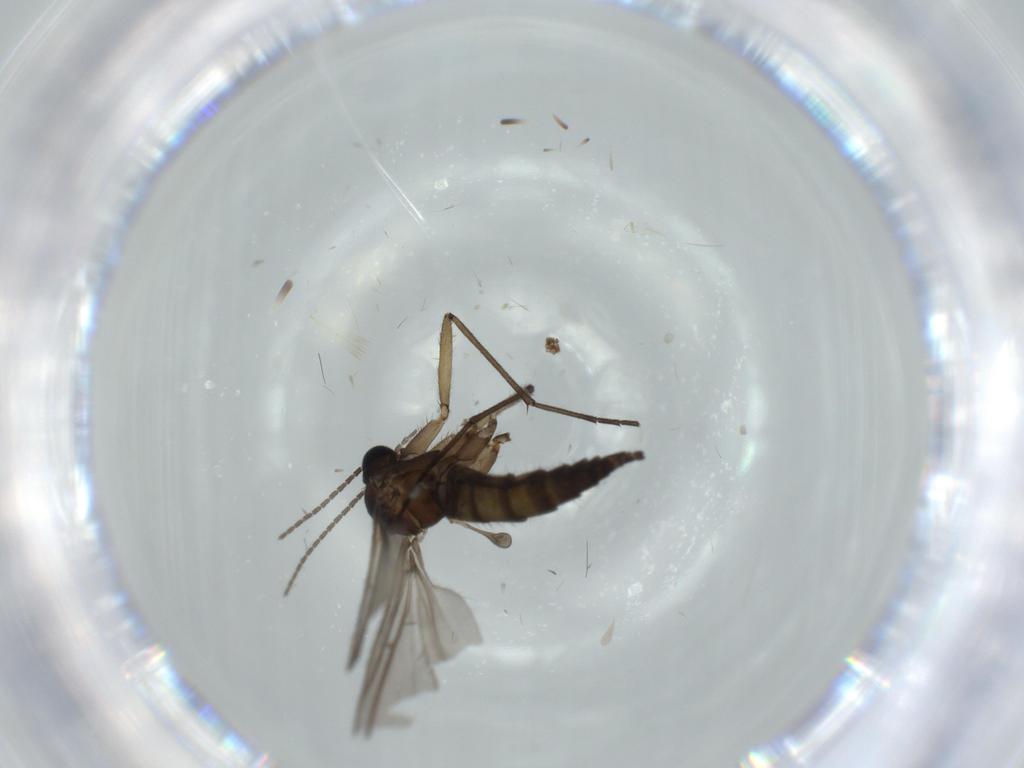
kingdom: Animalia
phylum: Arthropoda
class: Insecta
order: Diptera
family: Sciaridae
